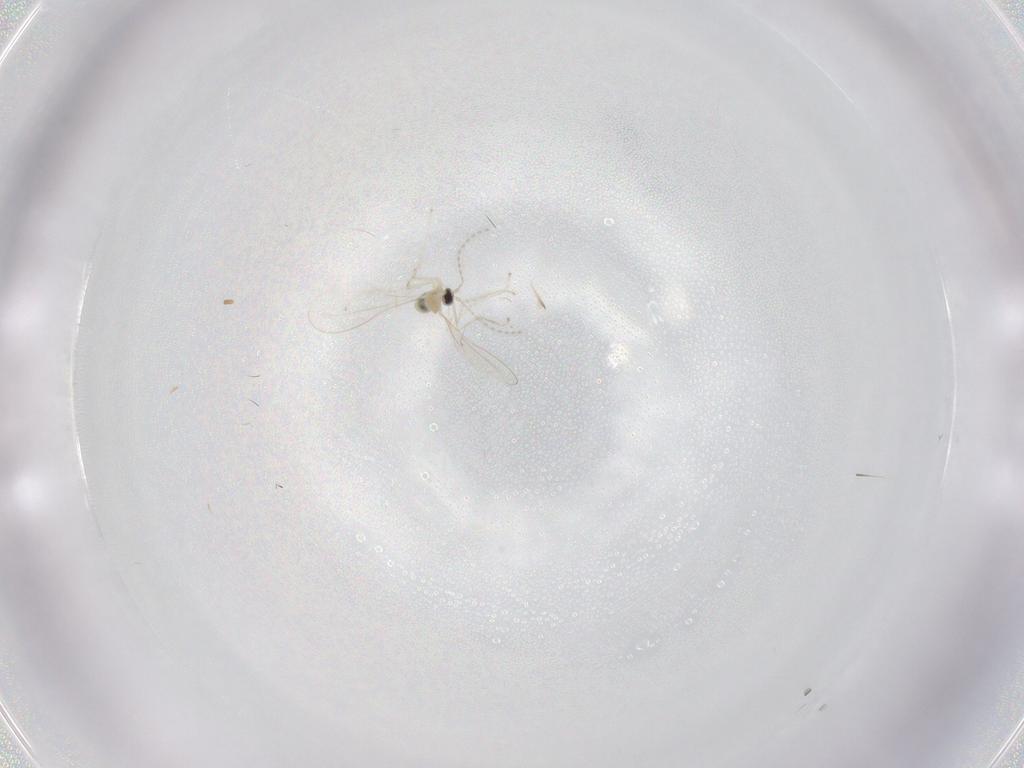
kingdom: Animalia
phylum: Arthropoda
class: Insecta
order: Diptera
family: Cecidomyiidae
